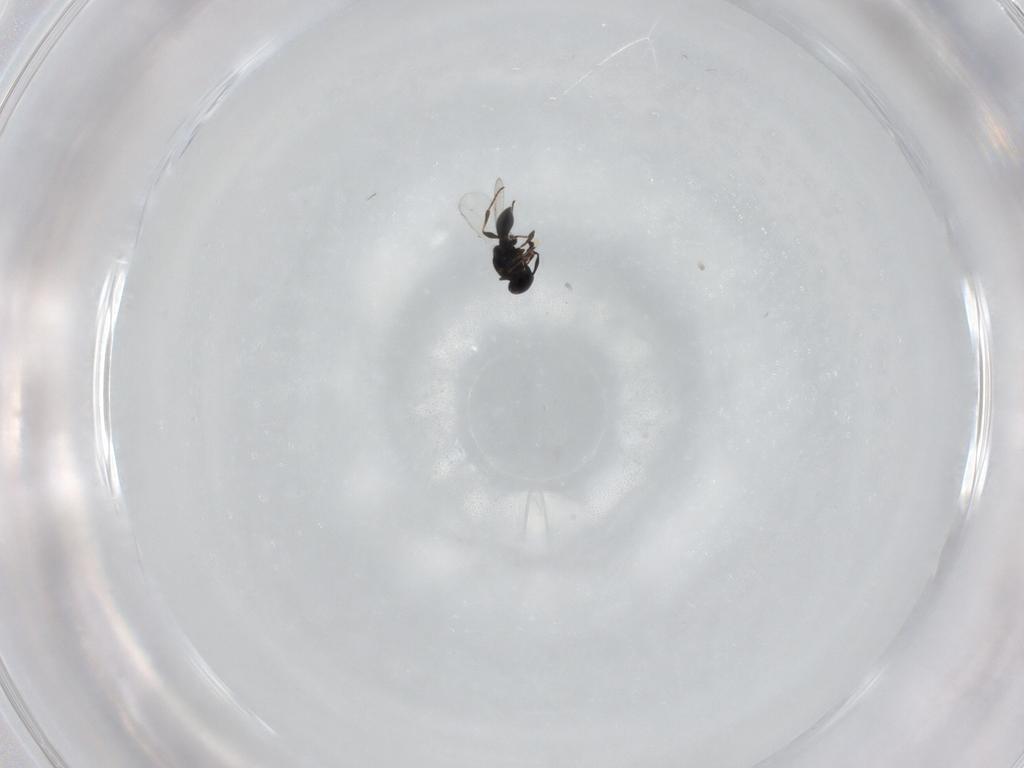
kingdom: Animalia
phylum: Arthropoda
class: Insecta
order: Hymenoptera
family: Platygastridae
